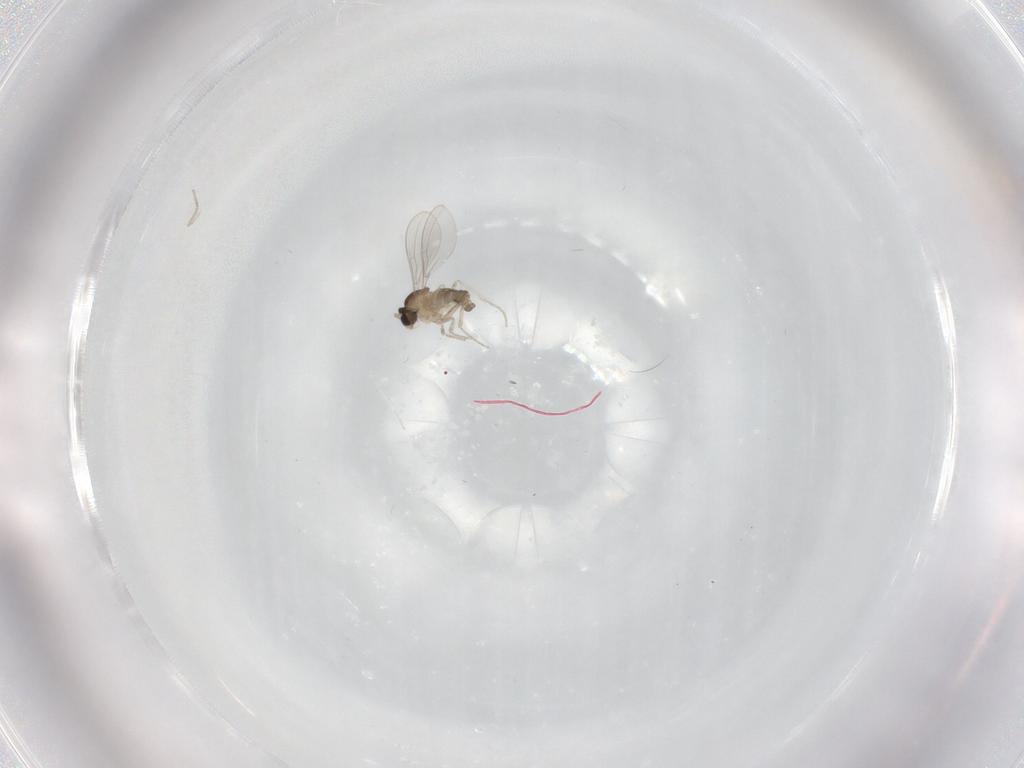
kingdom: Animalia
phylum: Arthropoda
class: Insecta
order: Diptera
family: Cecidomyiidae
